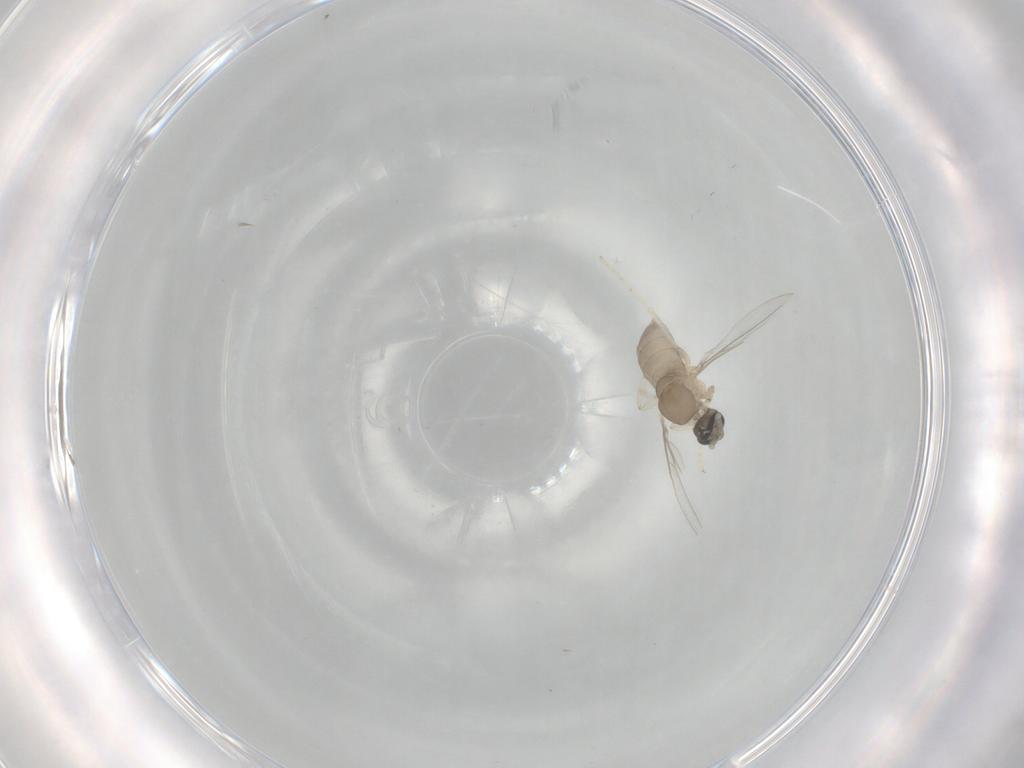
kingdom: Animalia
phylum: Arthropoda
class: Insecta
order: Diptera
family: Cecidomyiidae
